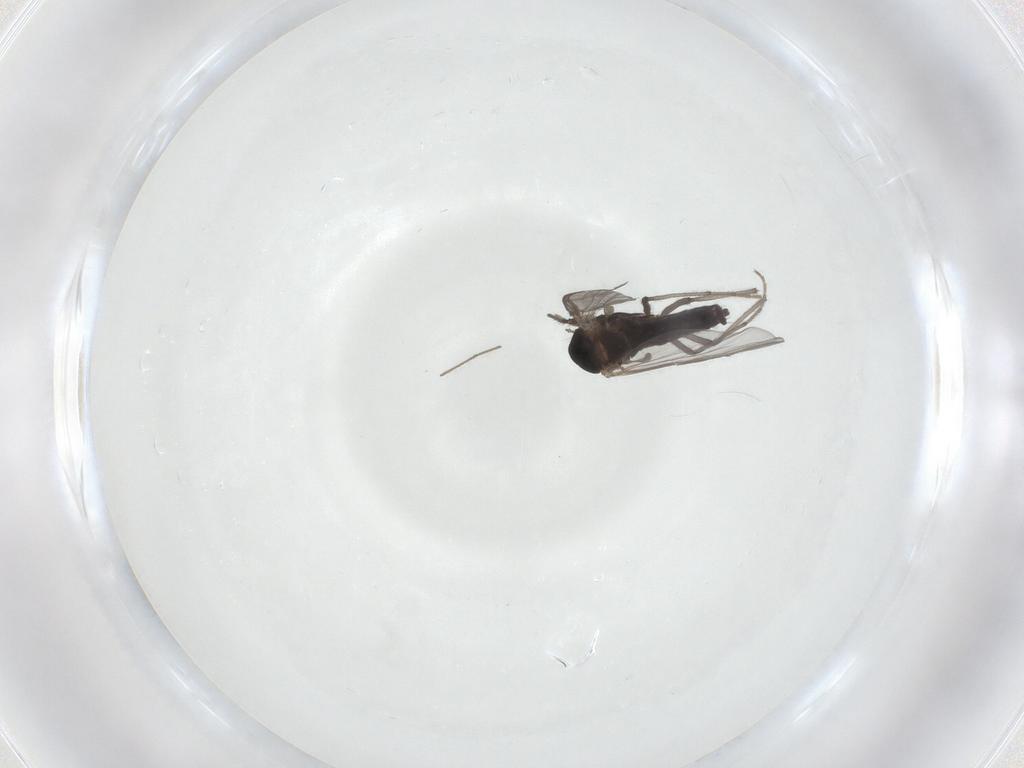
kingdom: Animalia
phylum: Arthropoda
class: Insecta
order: Diptera
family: Chironomidae
